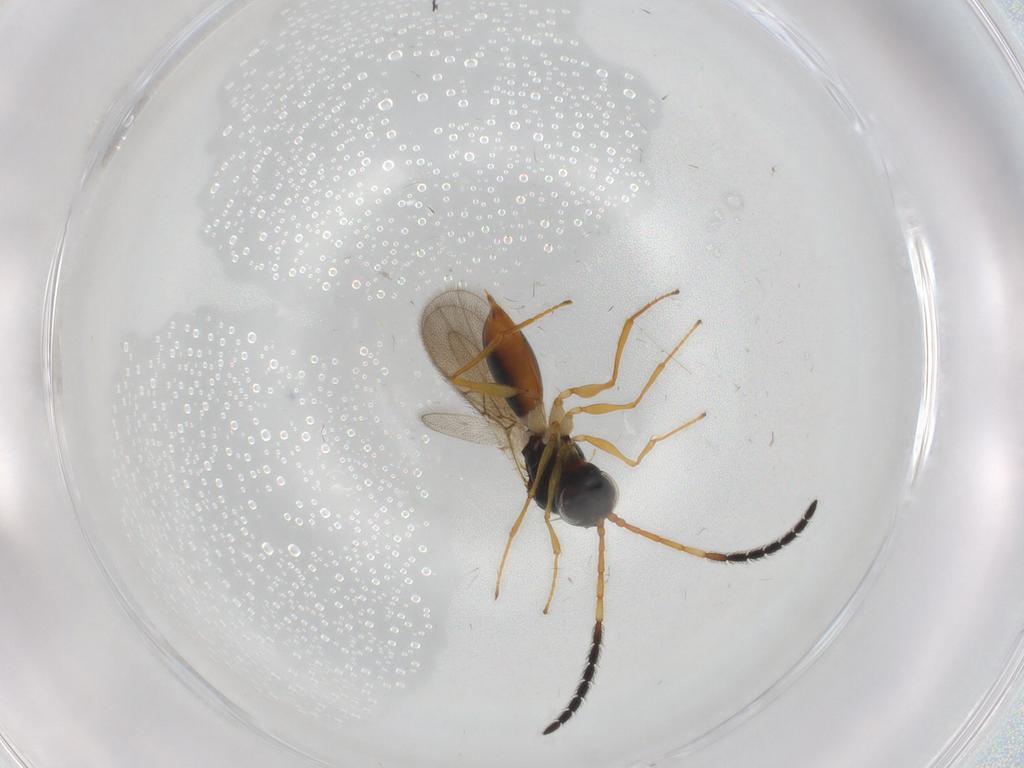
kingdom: Animalia
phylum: Arthropoda
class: Insecta
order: Hymenoptera
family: Figitidae
